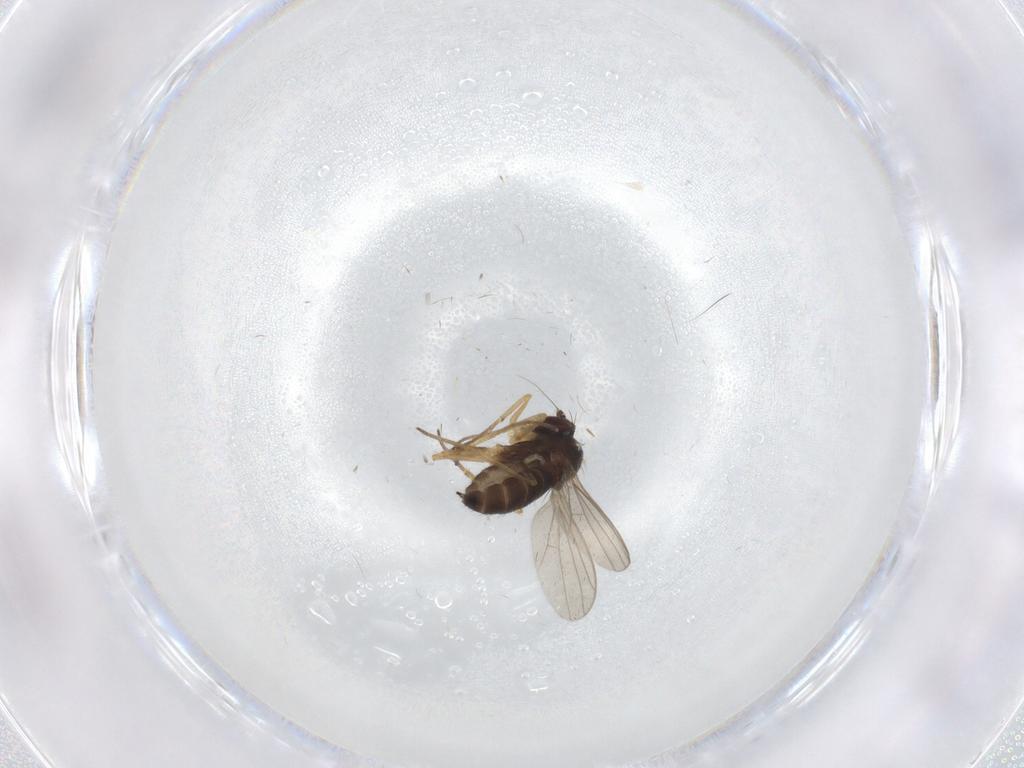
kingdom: Animalia
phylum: Arthropoda
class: Insecta
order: Diptera
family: Dolichopodidae
